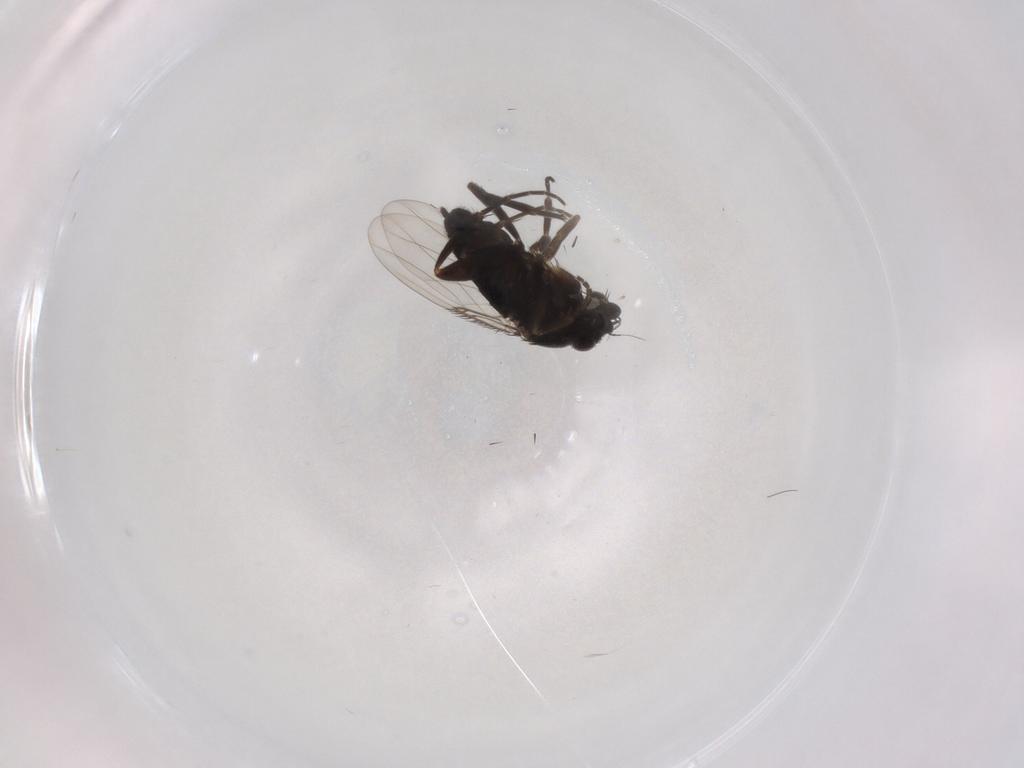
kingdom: Animalia
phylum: Arthropoda
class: Insecta
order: Diptera
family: Phoridae
